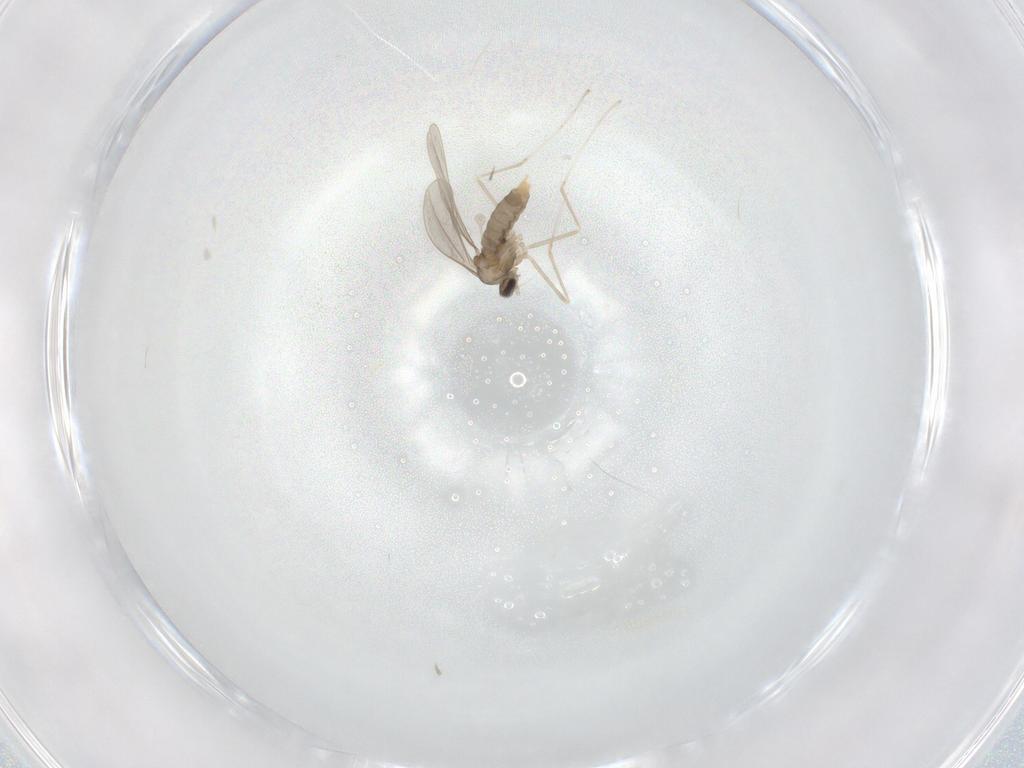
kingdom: Animalia
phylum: Arthropoda
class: Insecta
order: Diptera
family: Cecidomyiidae
